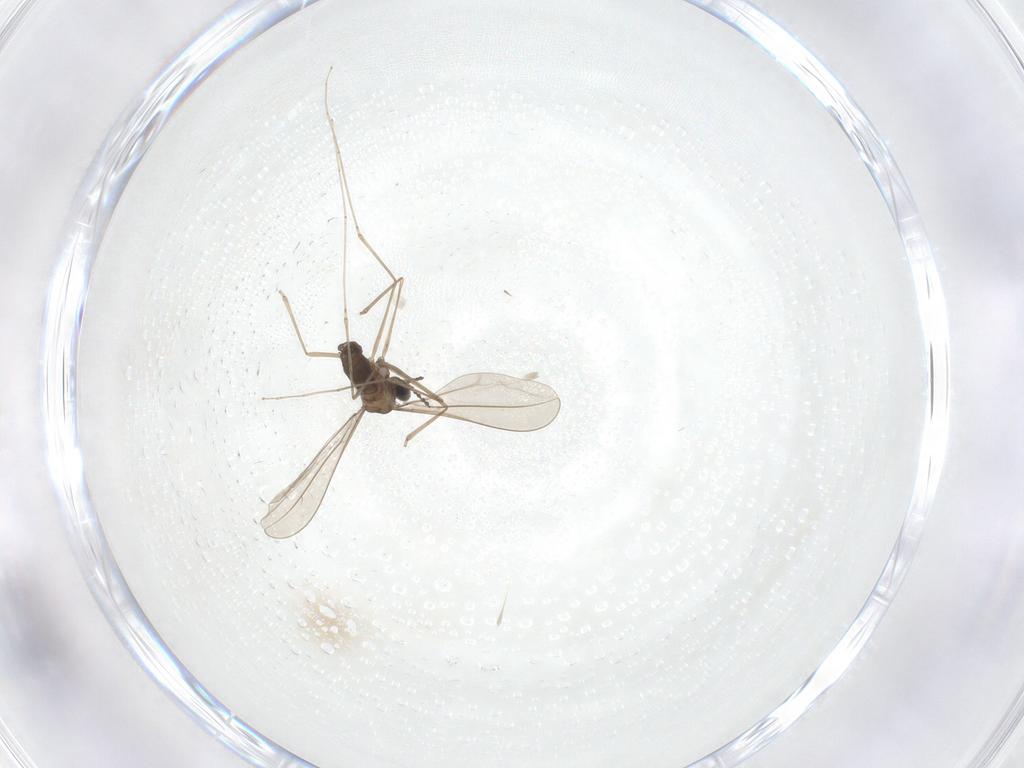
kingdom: Animalia
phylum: Arthropoda
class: Insecta
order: Diptera
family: Cecidomyiidae
